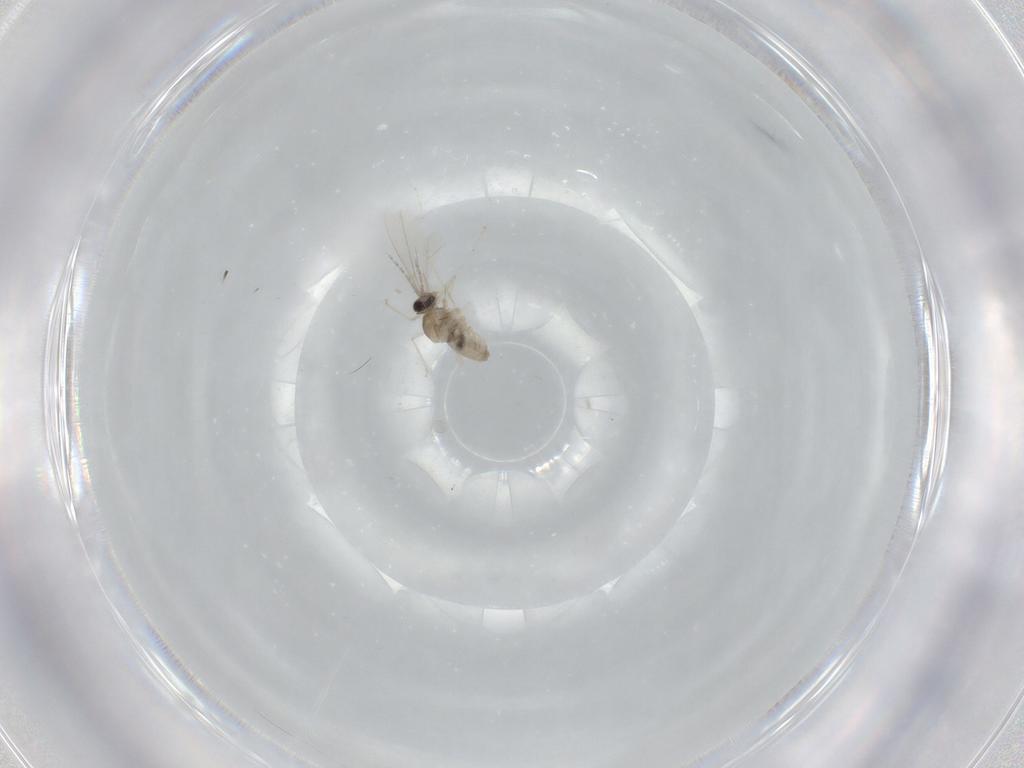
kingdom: Animalia
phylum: Arthropoda
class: Insecta
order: Diptera
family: Cecidomyiidae
